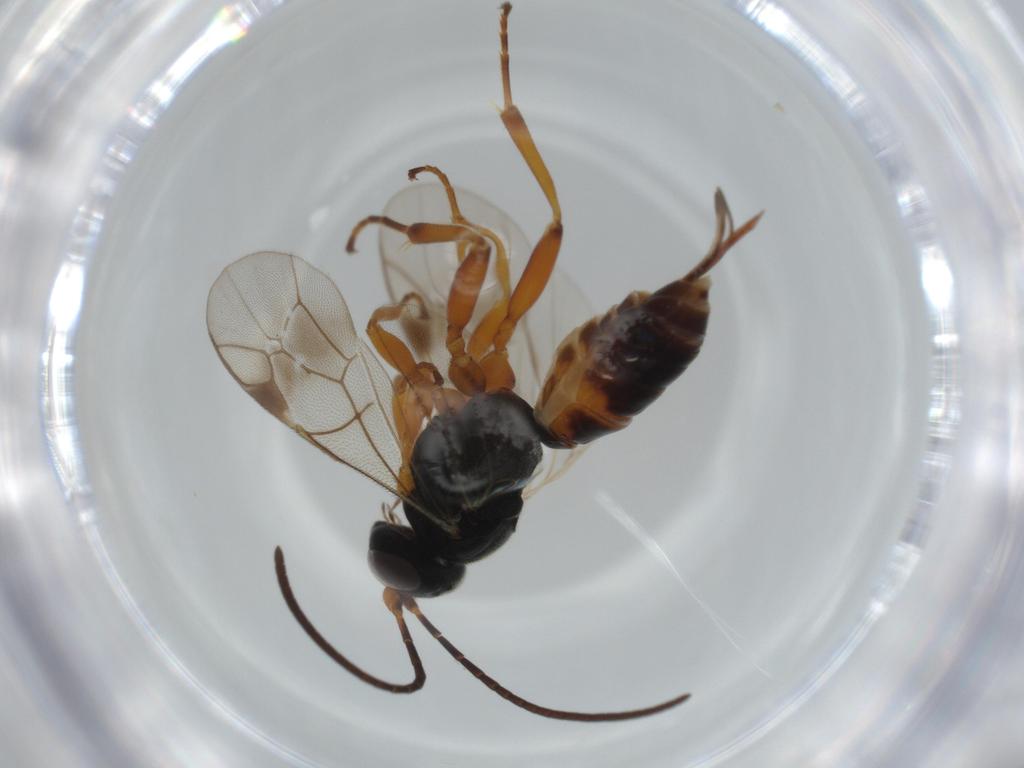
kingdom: Animalia
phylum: Arthropoda
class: Insecta
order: Hymenoptera
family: Ichneumonidae
